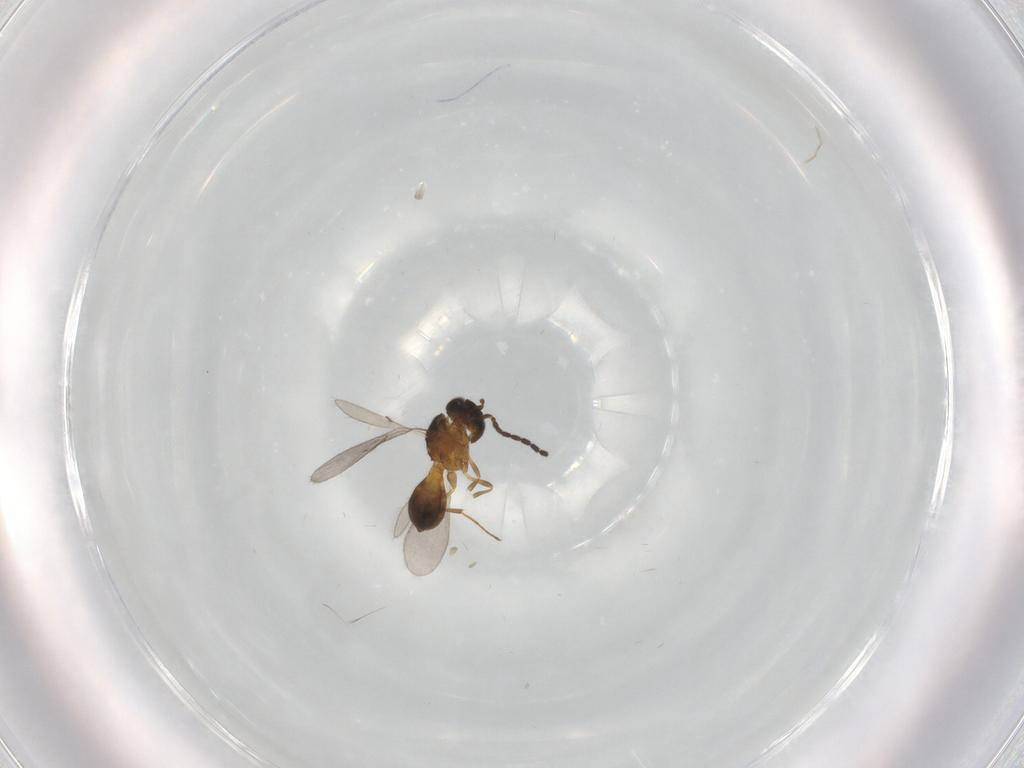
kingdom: Animalia
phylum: Arthropoda
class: Insecta
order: Hymenoptera
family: Scelionidae
